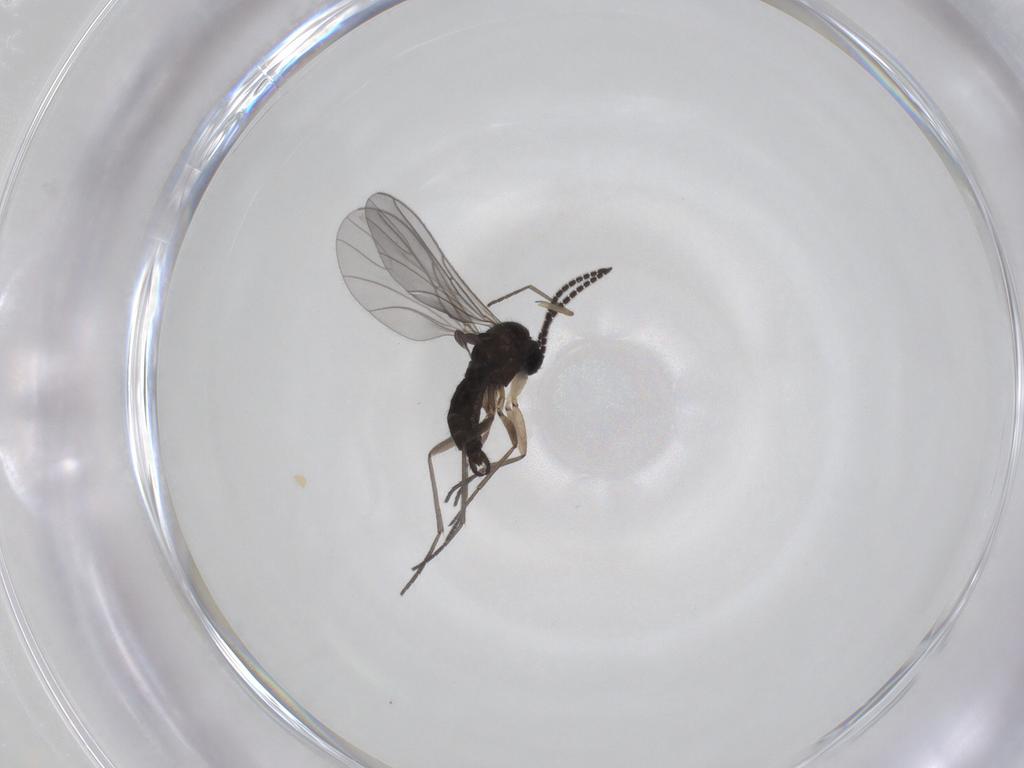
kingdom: Animalia
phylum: Arthropoda
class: Insecta
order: Diptera
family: Sciaridae
